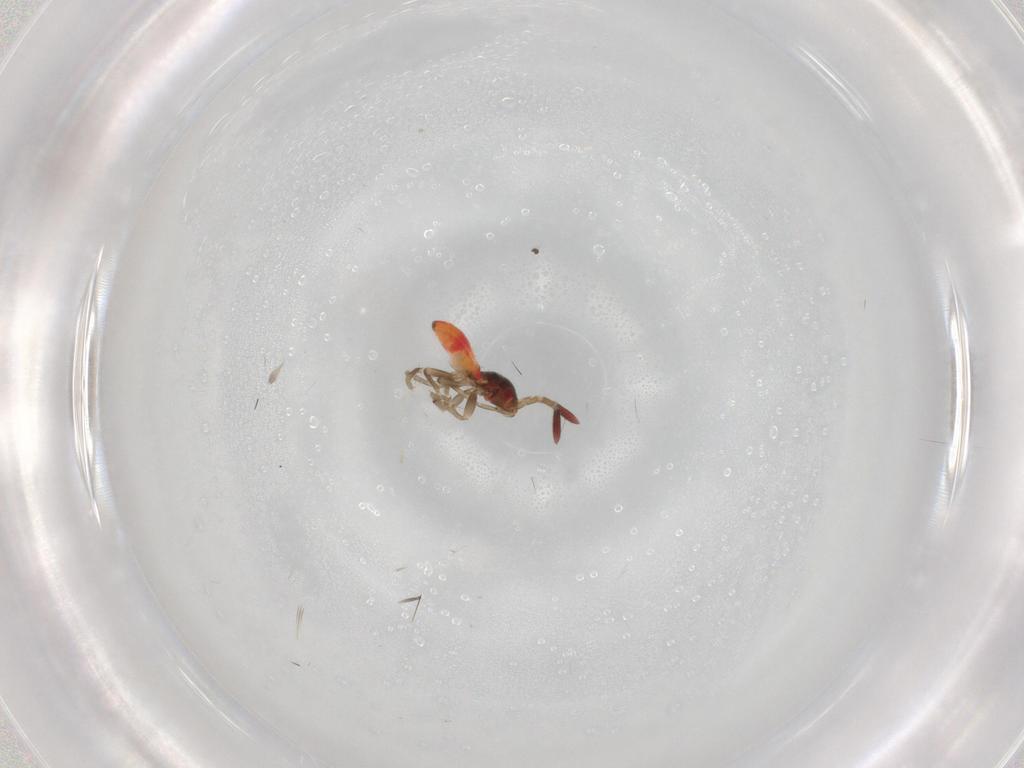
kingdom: Animalia
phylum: Arthropoda
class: Insecta
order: Hemiptera
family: Rhyparochromidae
